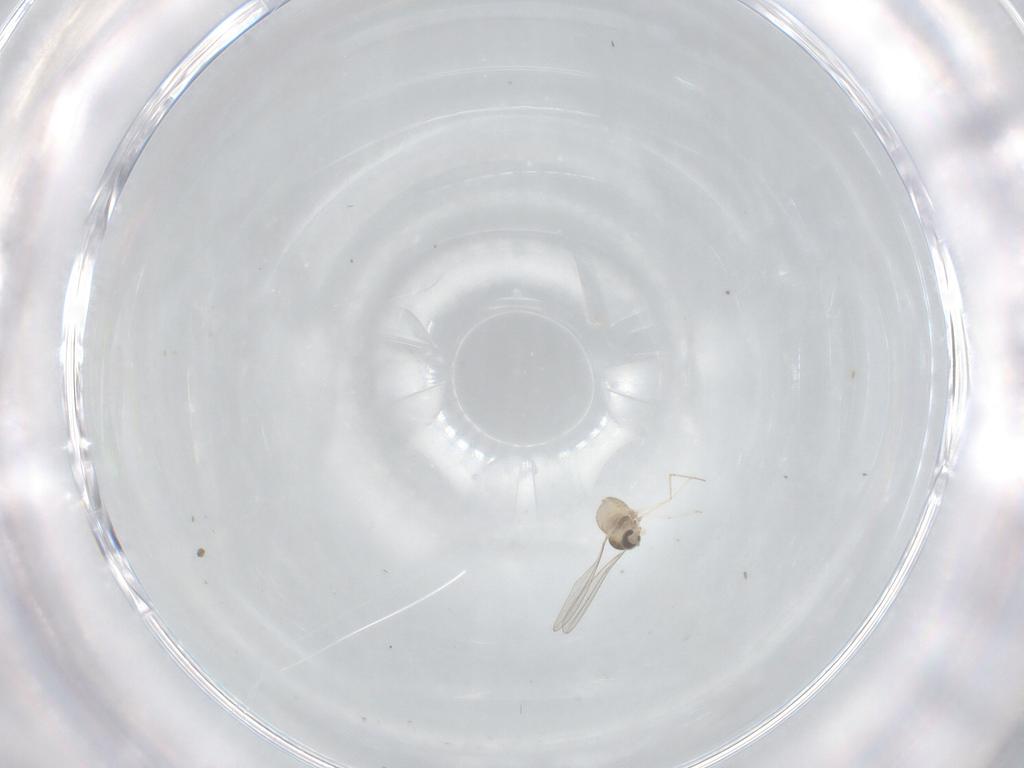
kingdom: Animalia
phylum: Arthropoda
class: Insecta
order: Diptera
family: Cecidomyiidae
